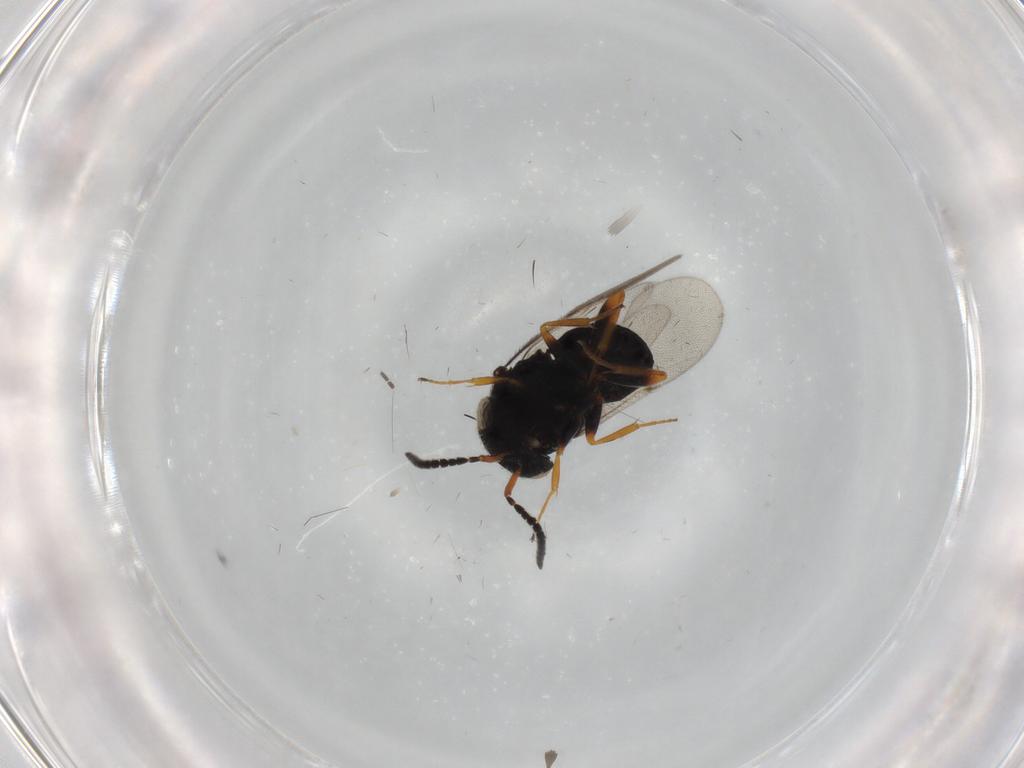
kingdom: Animalia
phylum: Arthropoda
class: Insecta
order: Hymenoptera
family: Scelionidae
